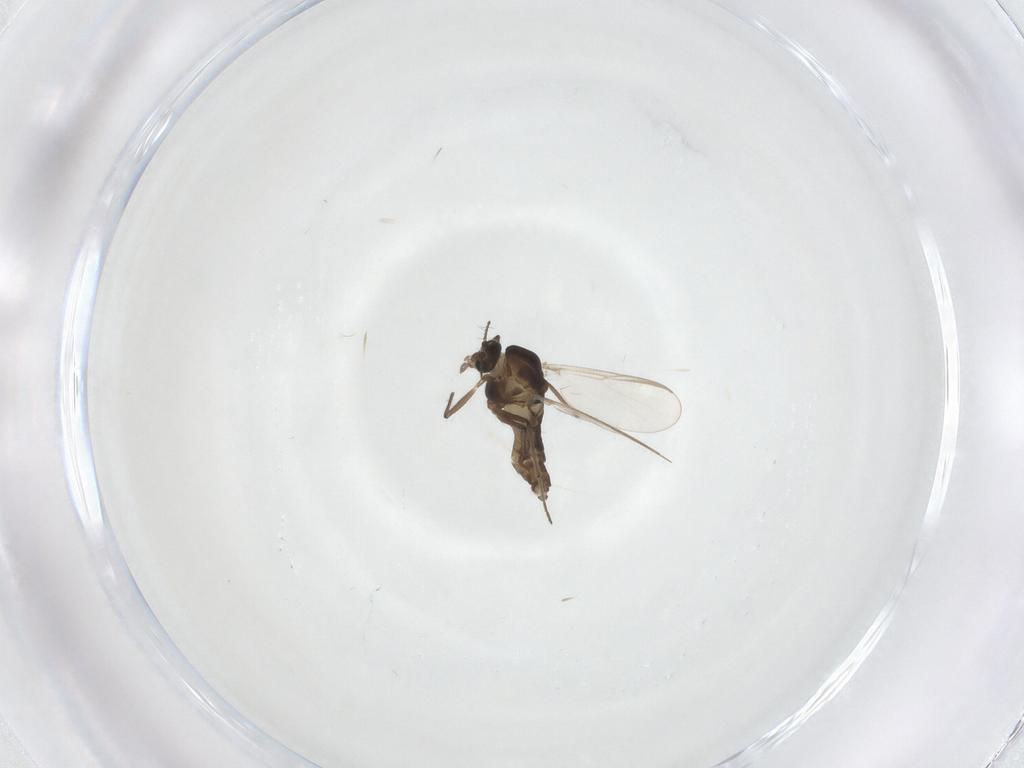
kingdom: Animalia
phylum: Arthropoda
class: Insecta
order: Diptera
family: Chironomidae
